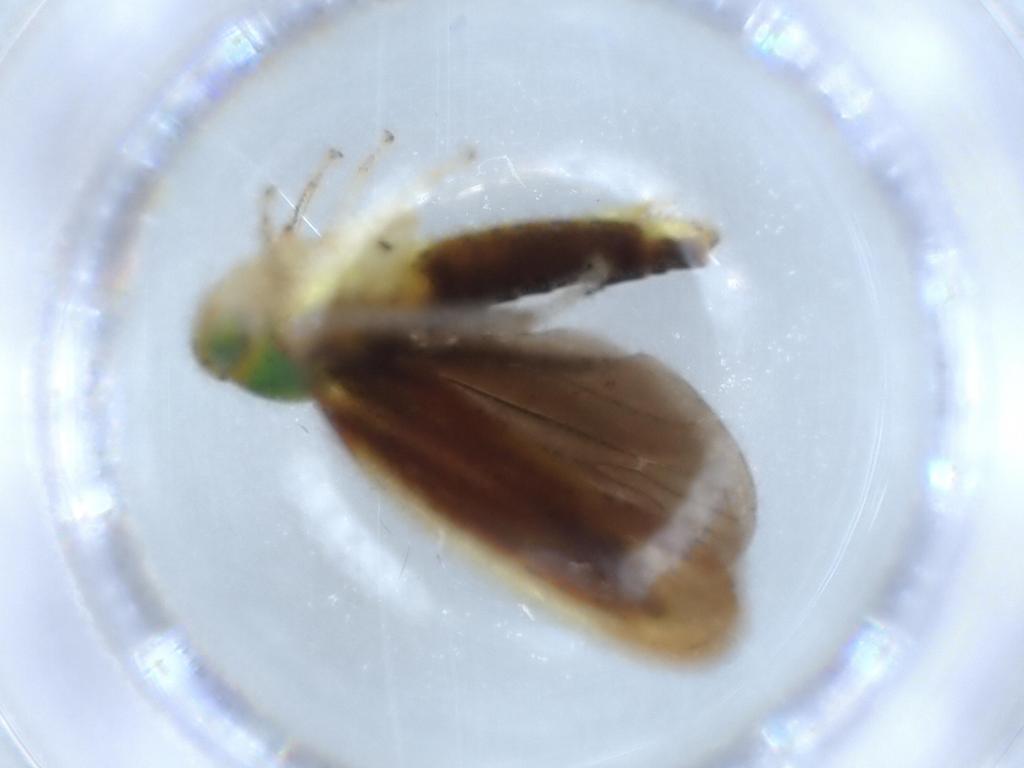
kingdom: Animalia
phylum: Arthropoda
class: Insecta
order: Hemiptera
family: Cicadellidae
